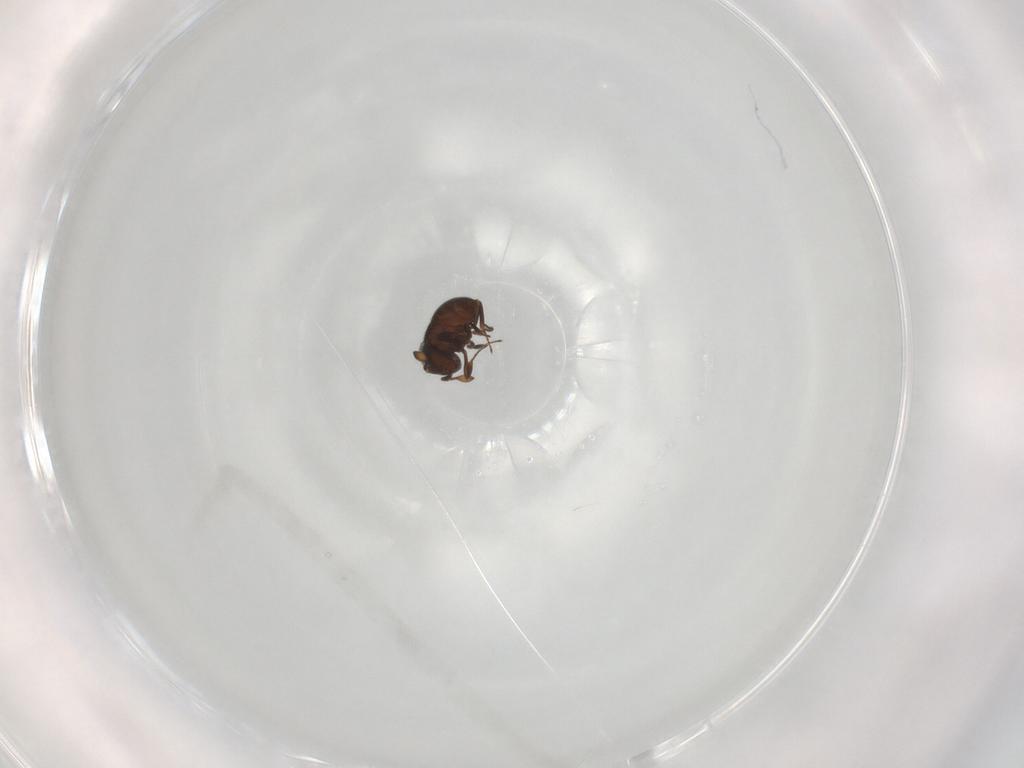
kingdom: Animalia
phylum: Arthropoda
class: Insecta
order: Hymenoptera
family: Scelionidae
